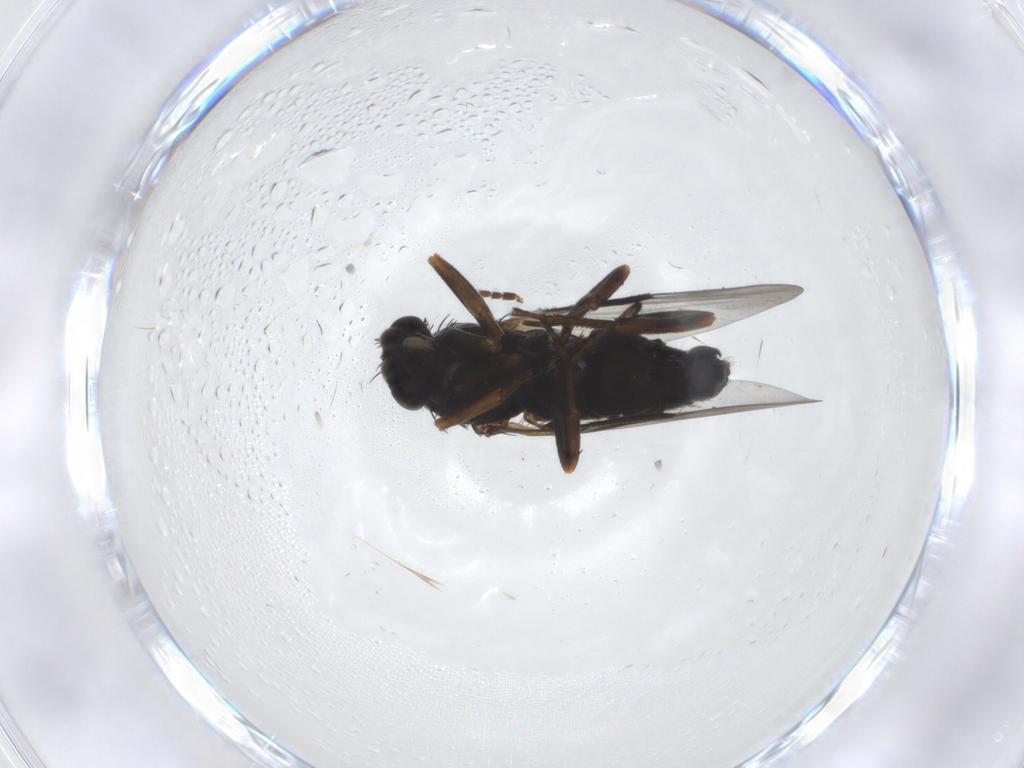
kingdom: Animalia
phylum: Arthropoda
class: Insecta
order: Diptera
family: Phoridae
